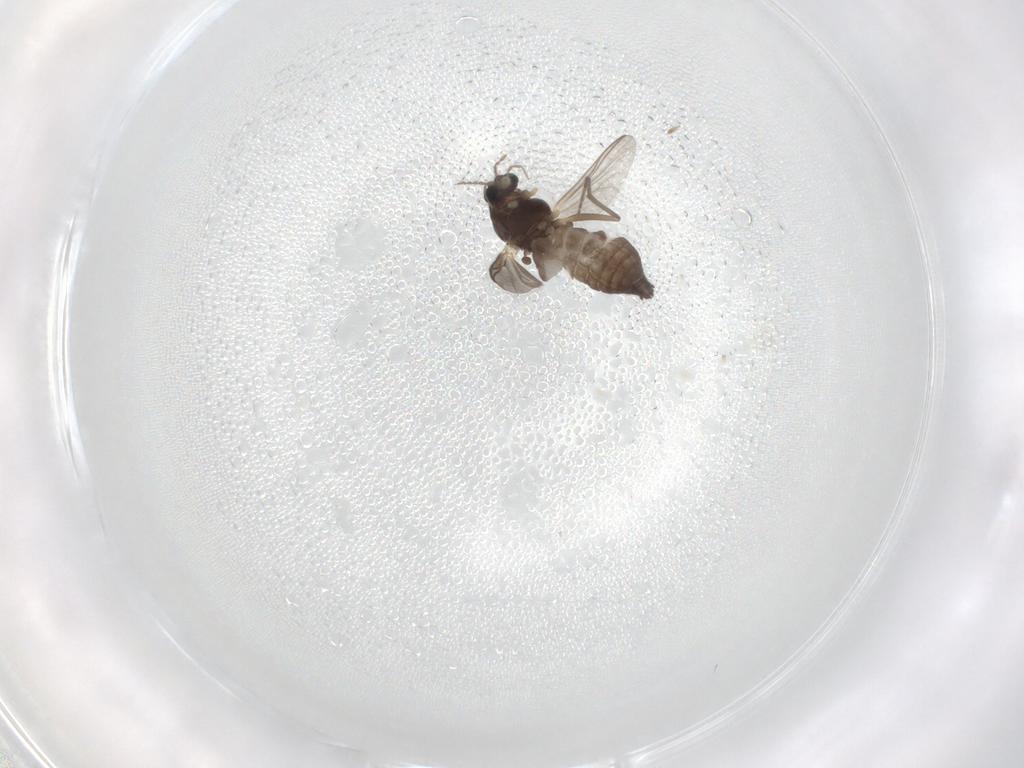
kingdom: Animalia
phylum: Arthropoda
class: Insecta
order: Diptera
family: Chironomidae
